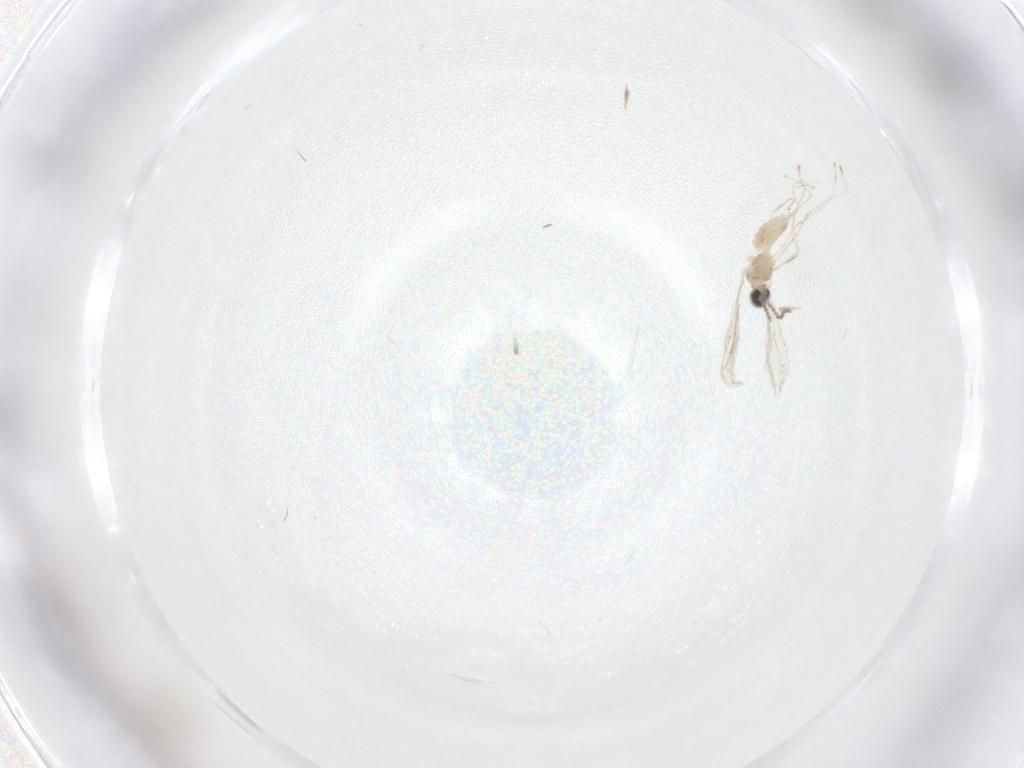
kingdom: Animalia
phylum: Arthropoda
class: Insecta
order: Diptera
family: Cecidomyiidae
